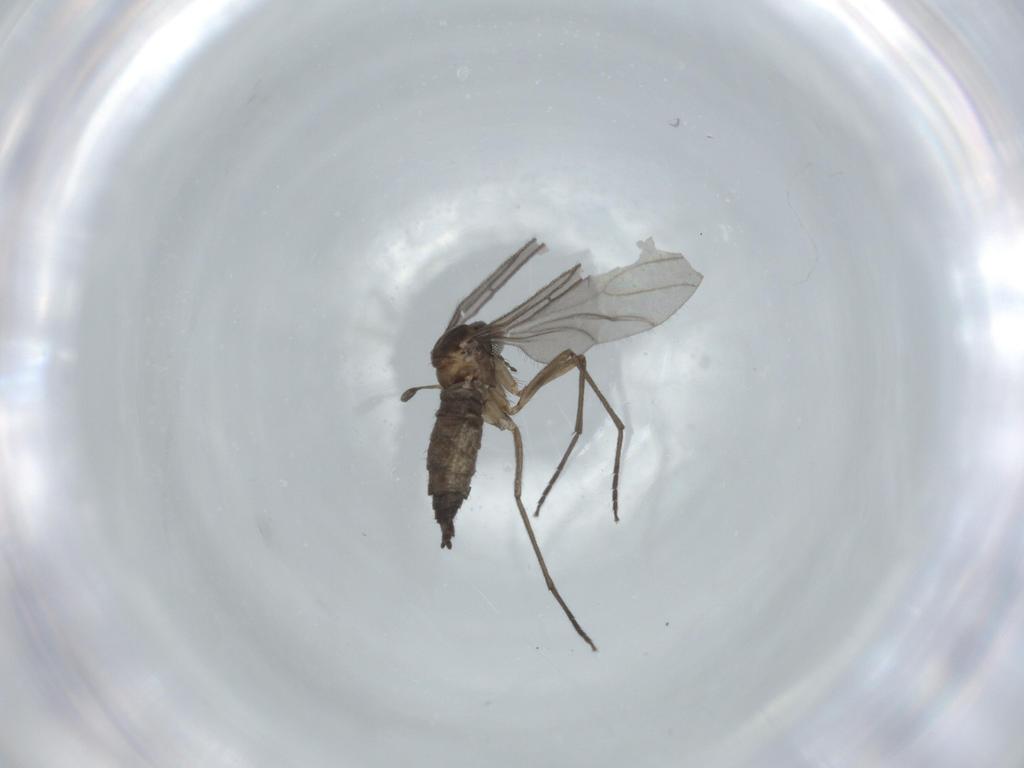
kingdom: Animalia
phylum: Arthropoda
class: Insecta
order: Diptera
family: Sciaridae
